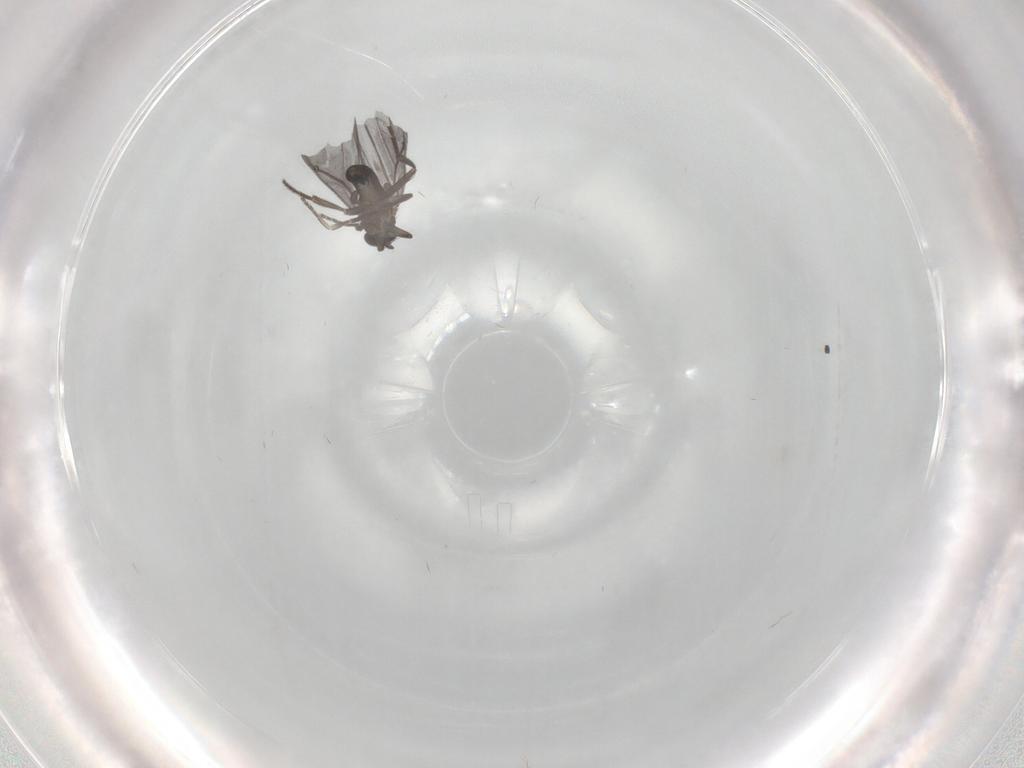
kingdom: Animalia
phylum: Arthropoda
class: Insecta
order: Diptera
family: Phoridae
